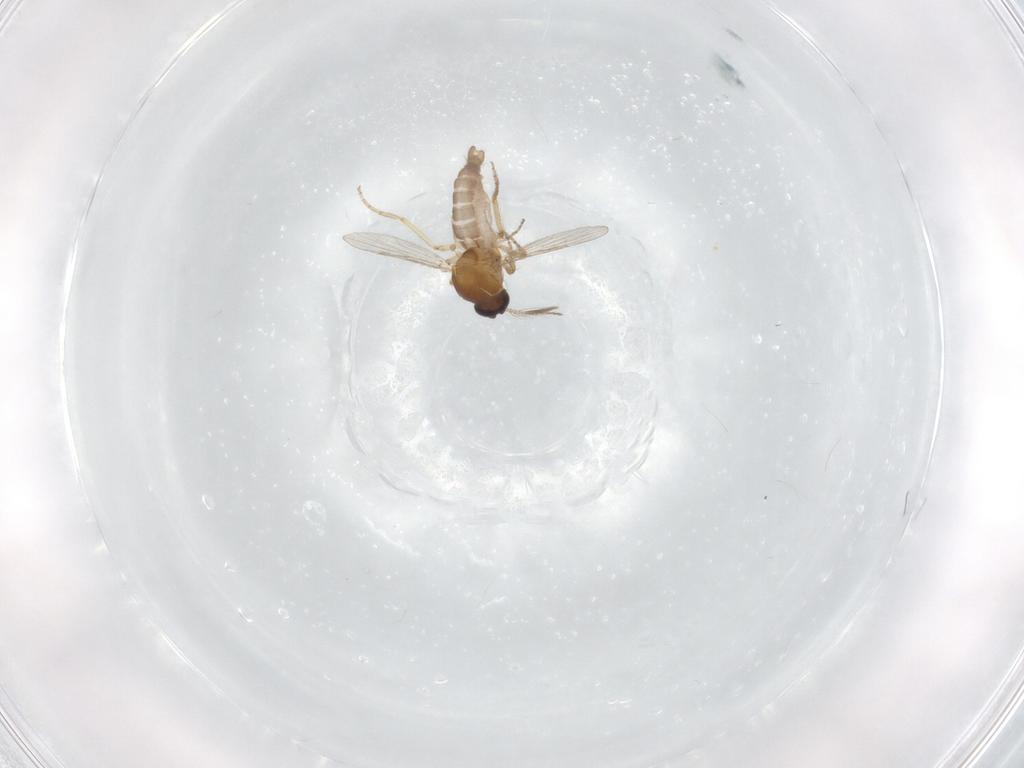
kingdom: Animalia
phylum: Arthropoda
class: Insecta
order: Diptera
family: Ceratopogonidae
